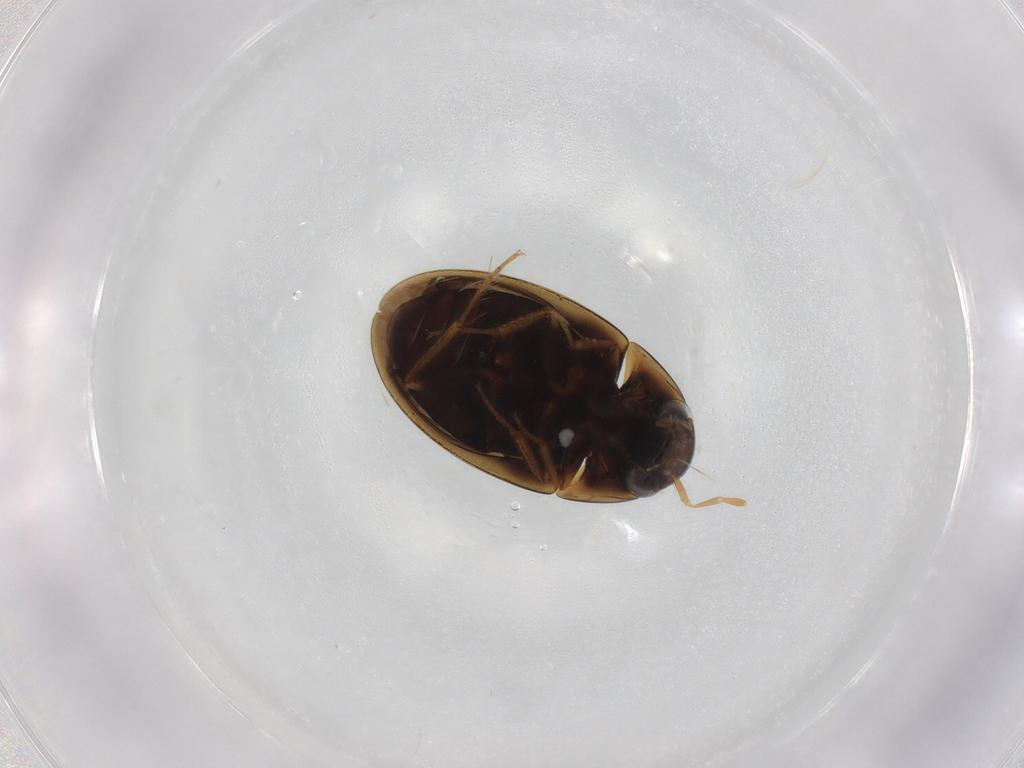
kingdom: Animalia
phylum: Arthropoda
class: Insecta
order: Coleoptera
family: Hydrophilidae
